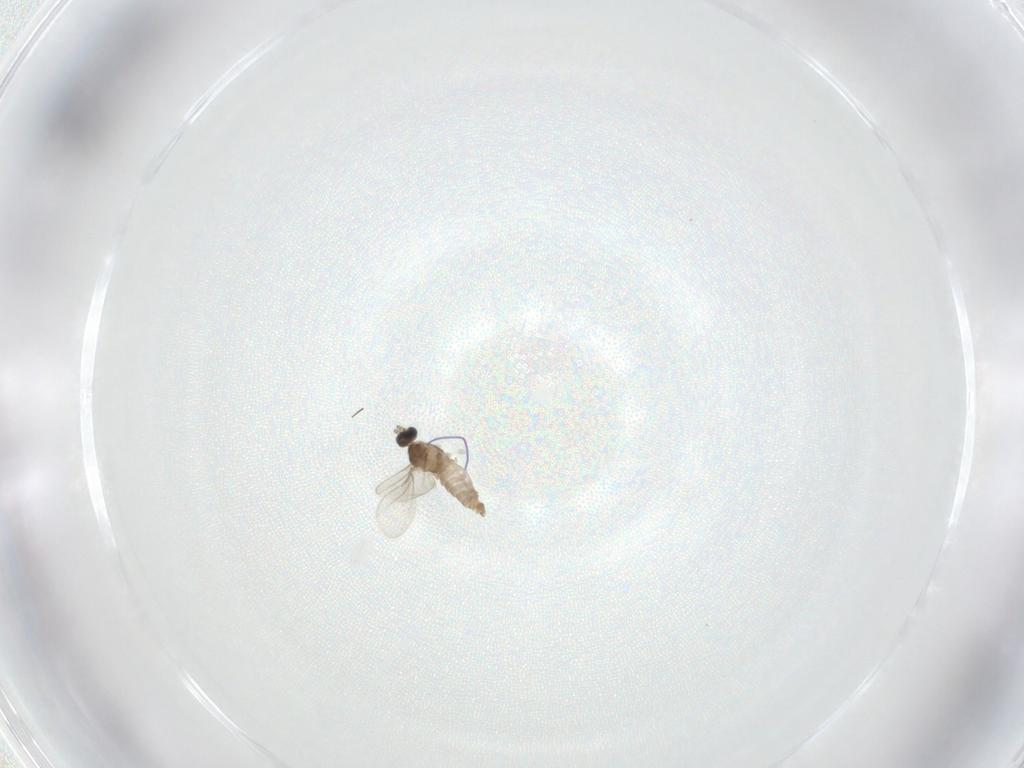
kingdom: Animalia
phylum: Arthropoda
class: Insecta
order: Diptera
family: Cecidomyiidae
